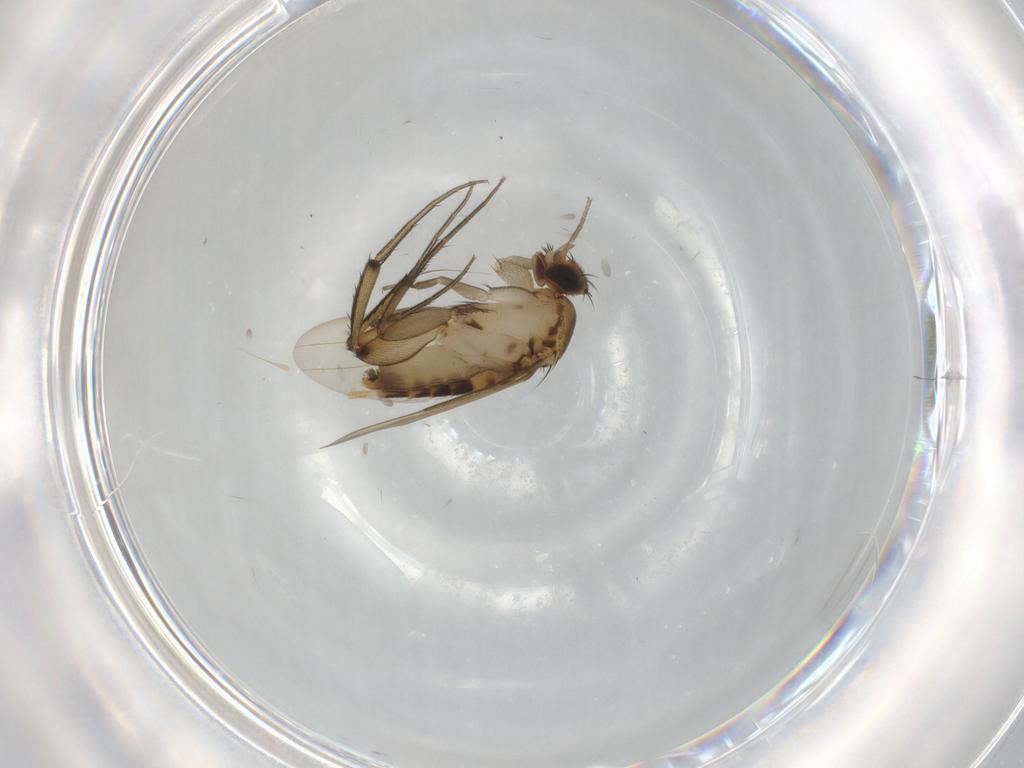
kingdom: Animalia
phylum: Arthropoda
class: Insecta
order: Diptera
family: Phoridae
